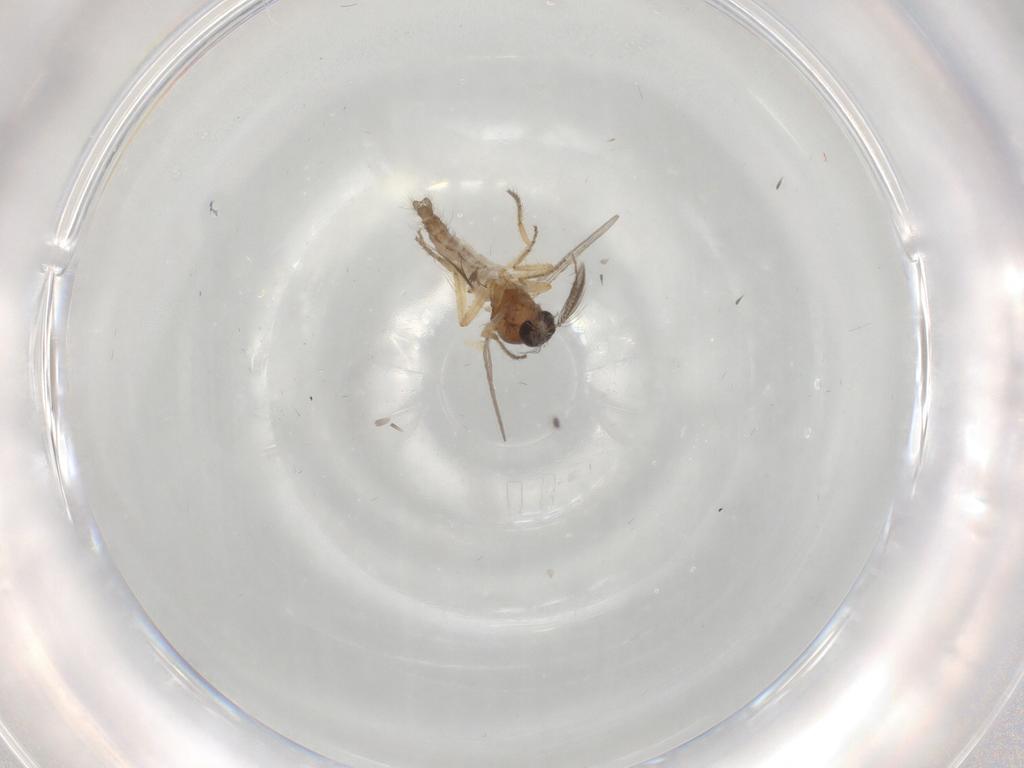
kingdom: Animalia
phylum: Arthropoda
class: Insecta
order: Diptera
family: Ceratopogonidae
